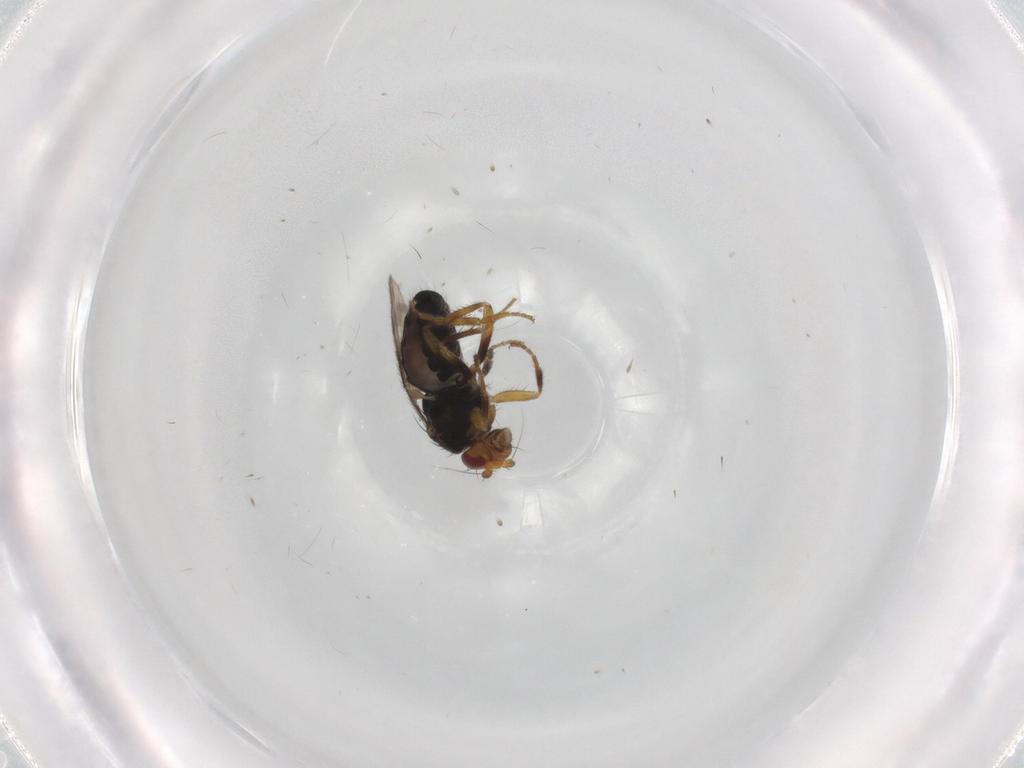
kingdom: Animalia
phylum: Arthropoda
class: Insecta
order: Diptera
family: Sphaeroceridae
